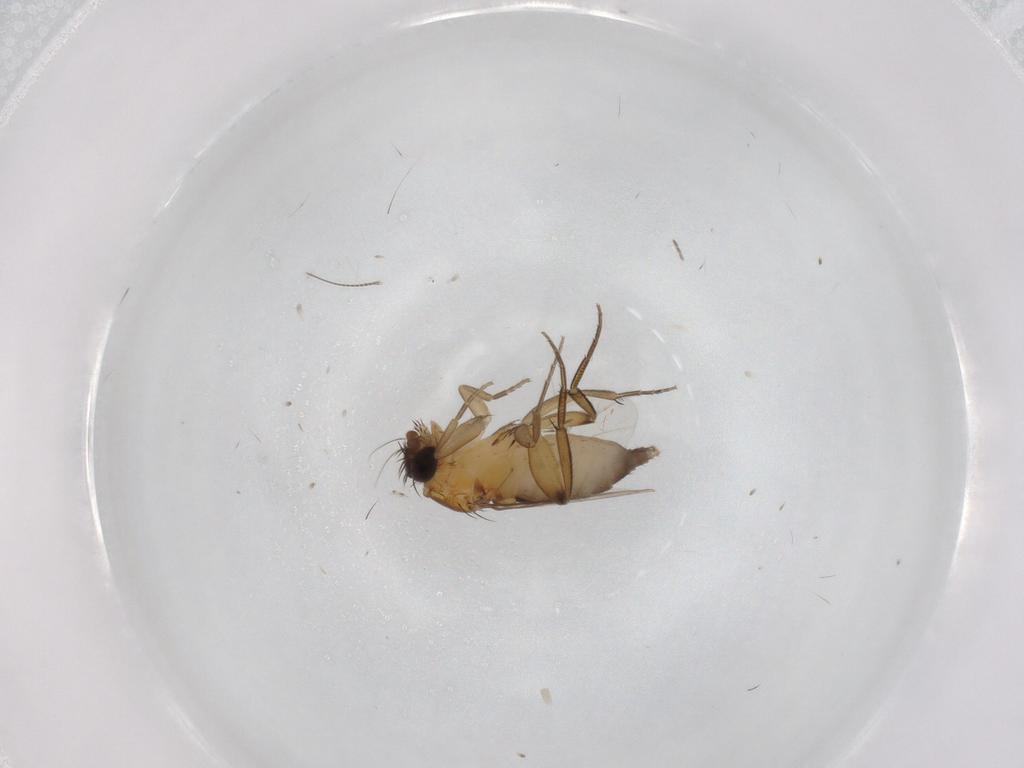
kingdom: Animalia
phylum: Arthropoda
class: Insecta
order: Diptera
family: Phoridae
